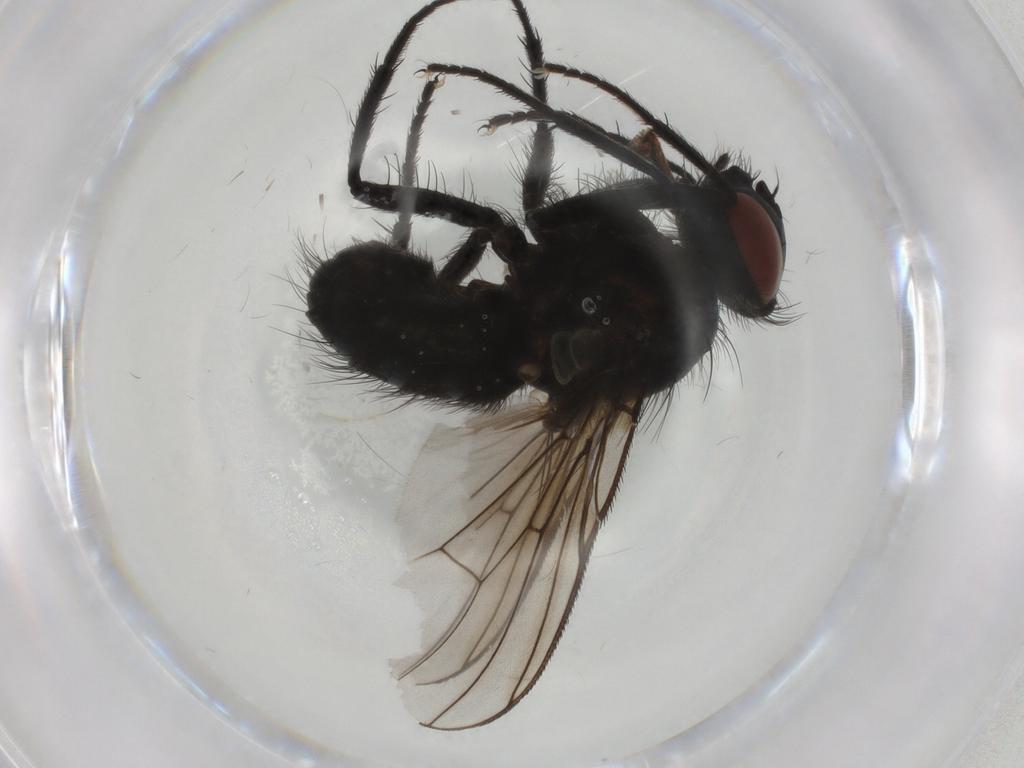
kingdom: Animalia
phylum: Arthropoda
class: Insecta
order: Diptera
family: Muscidae
